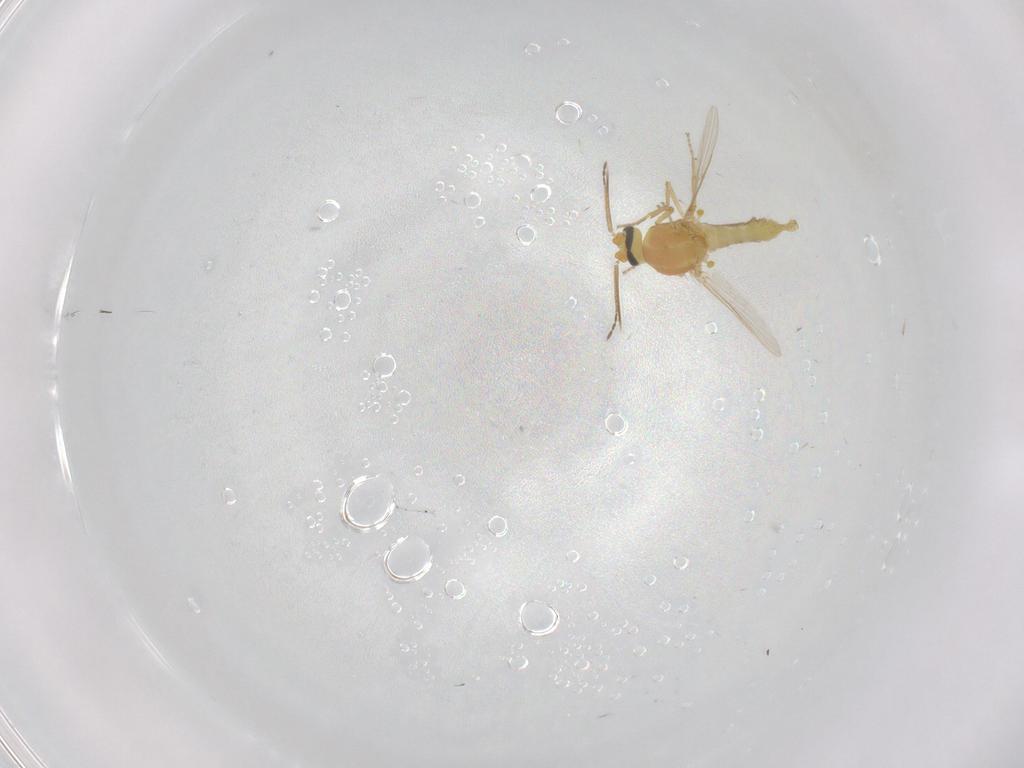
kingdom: Animalia
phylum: Arthropoda
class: Insecta
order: Diptera
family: Ceratopogonidae
